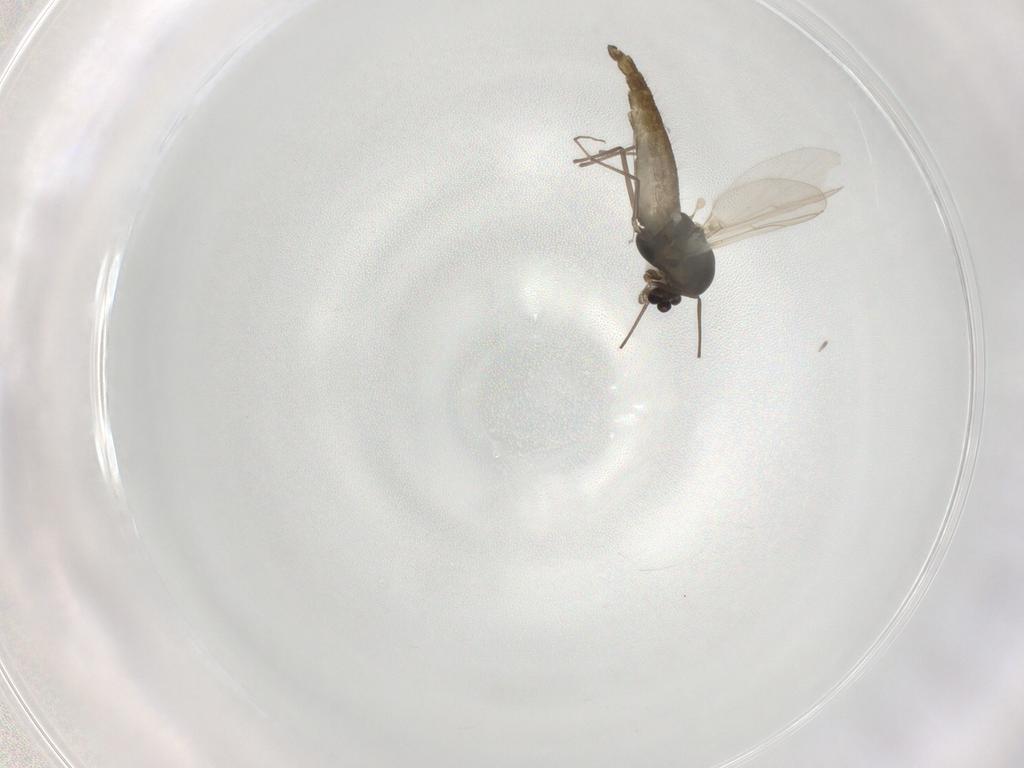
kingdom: Animalia
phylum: Arthropoda
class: Insecta
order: Diptera
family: Chironomidae
